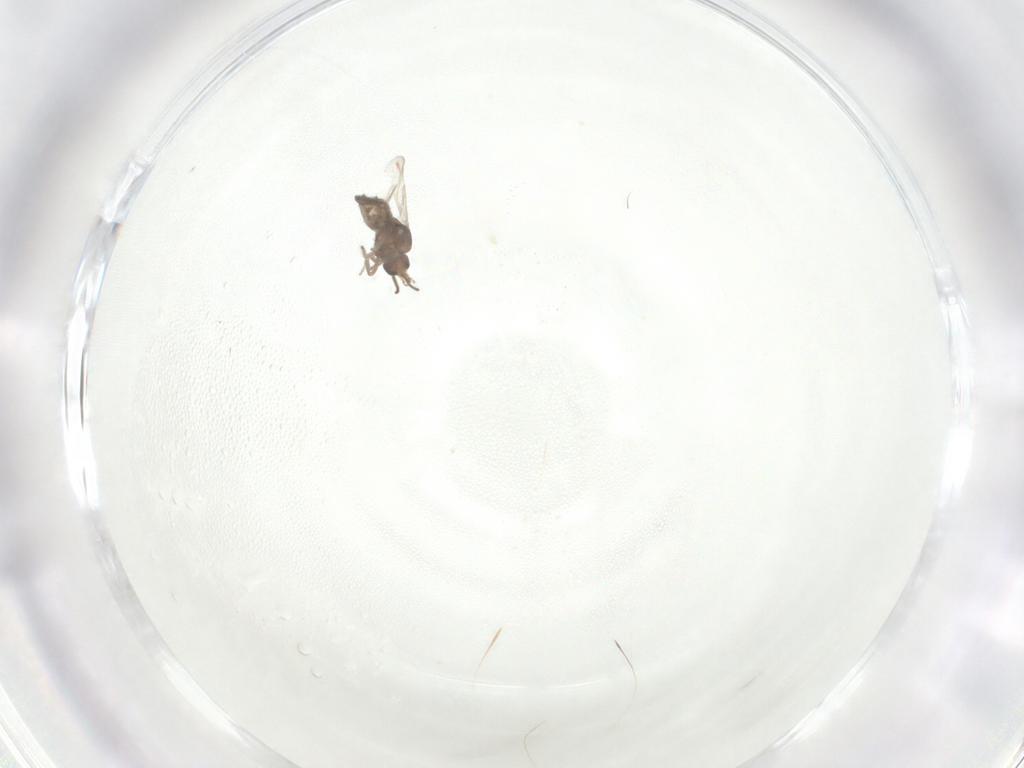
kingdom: Animalia
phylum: Arthropoda
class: Insecta
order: Diptera
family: Ceratopogonidae
